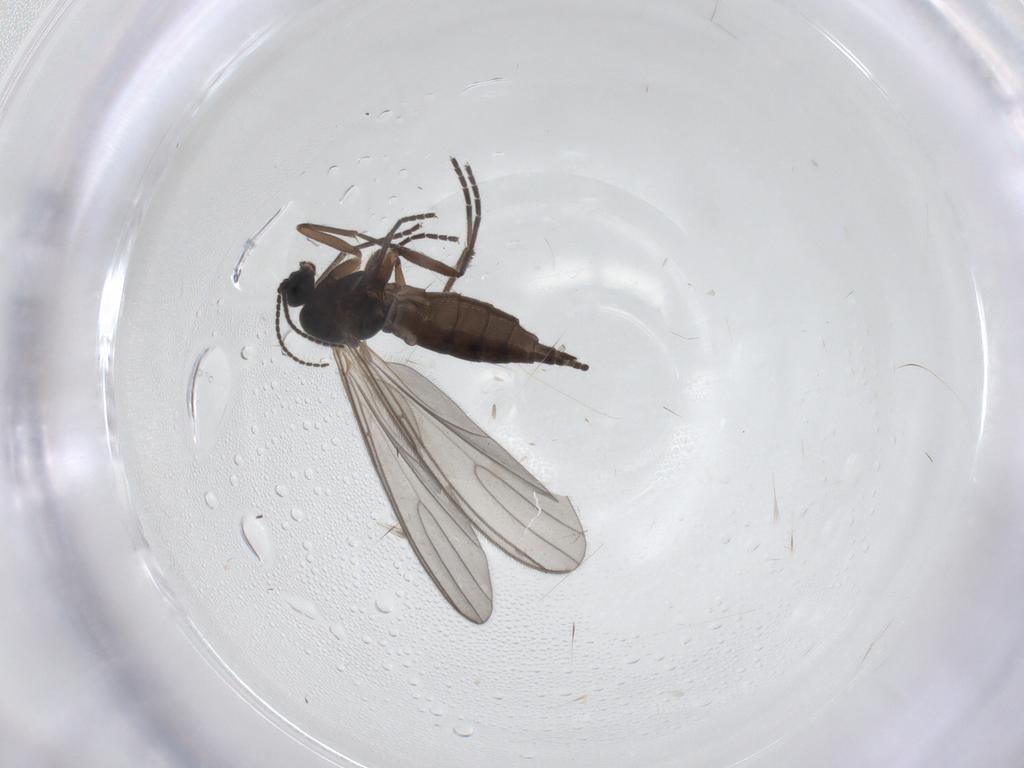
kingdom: Animalia
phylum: Arthropoda
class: Insecta
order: Diptera
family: Sciaridae
